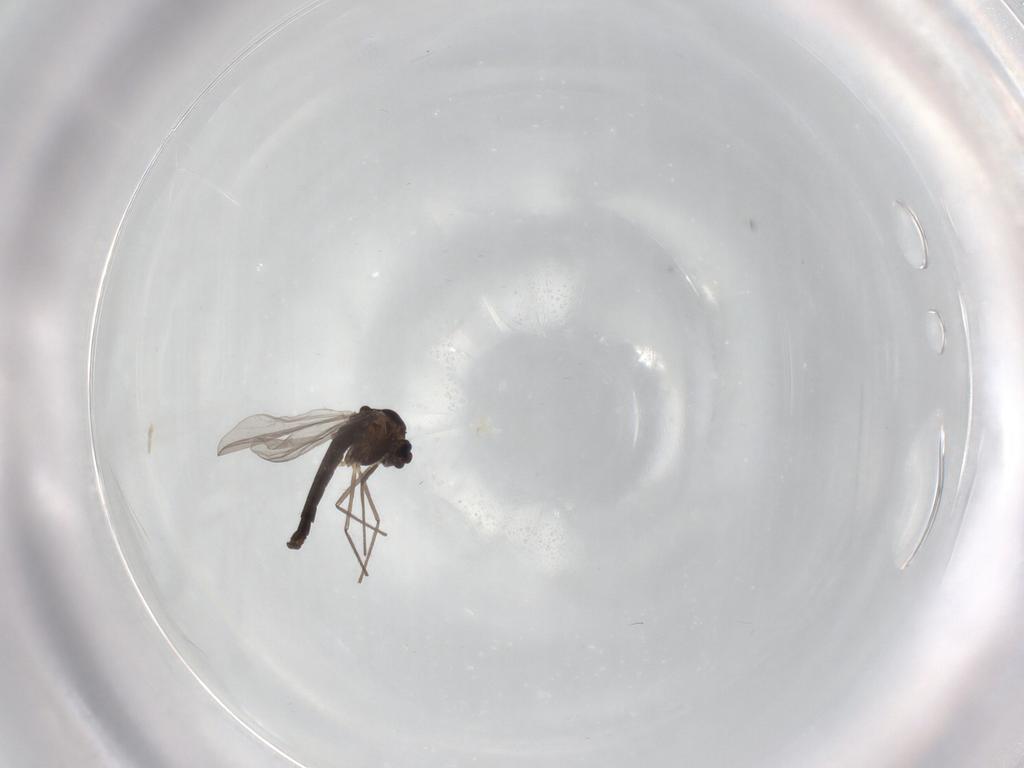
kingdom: Animalia
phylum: Arthropoda
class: Insecta
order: Diptera
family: Chironomidae
